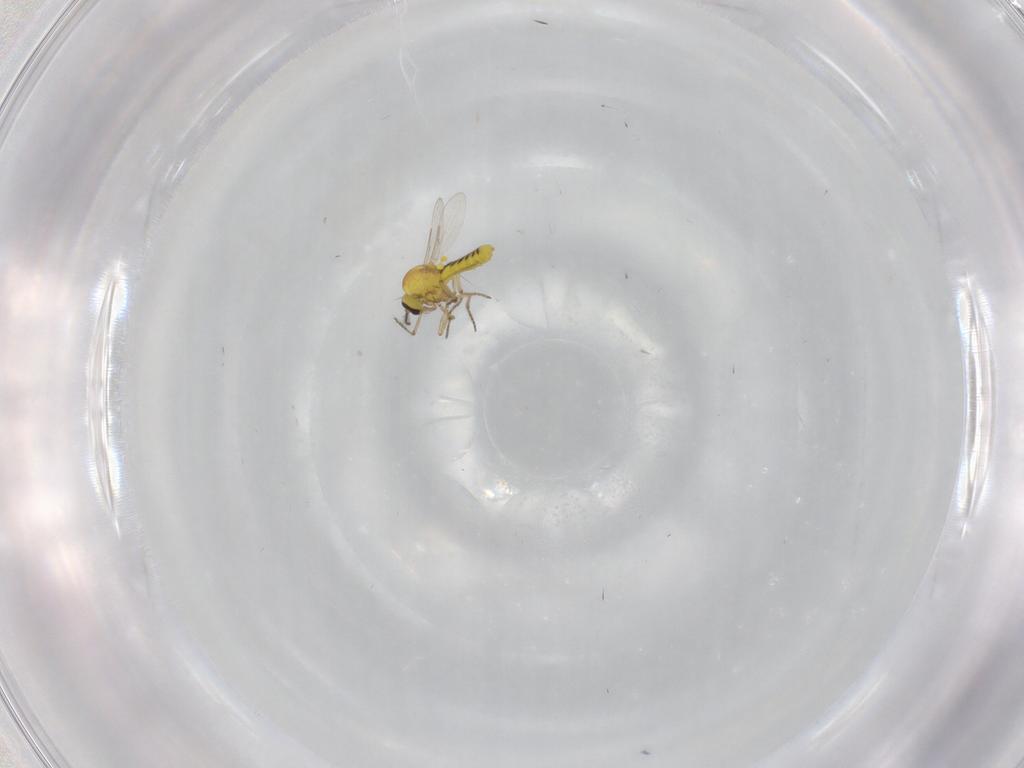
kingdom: Animalia
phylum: Arthropoda
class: Insecta
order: Diptera
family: Ceratopogonidae
